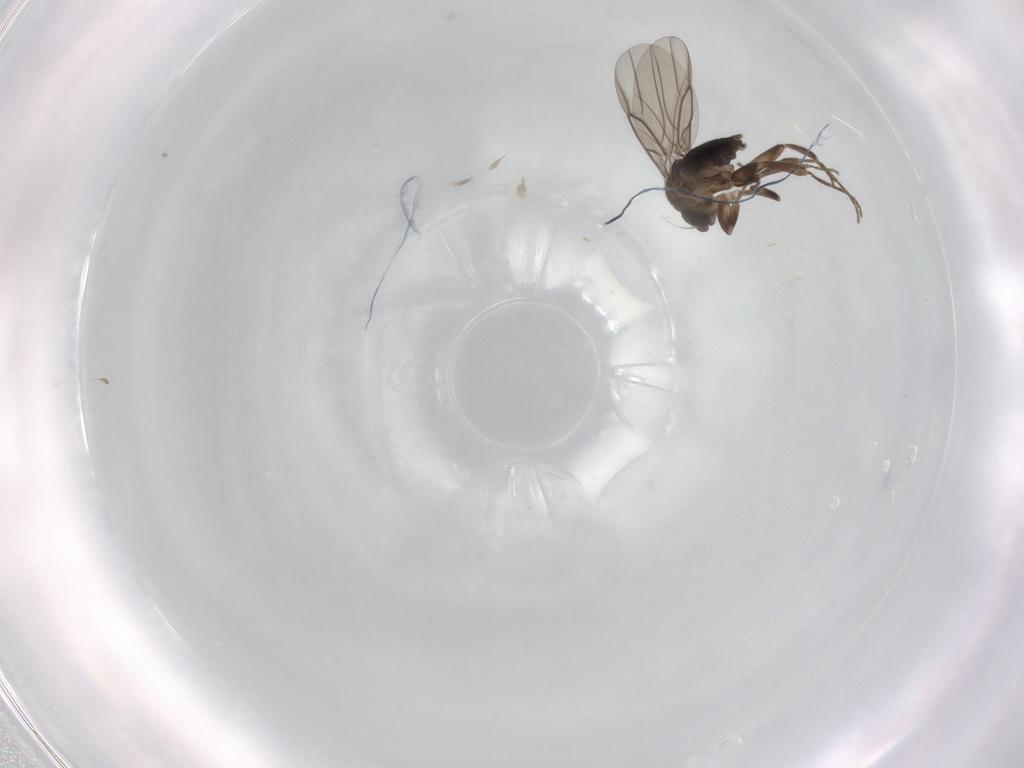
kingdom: Animalia
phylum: Arthropoda
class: Insecta
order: Diptera
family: Phoridae
